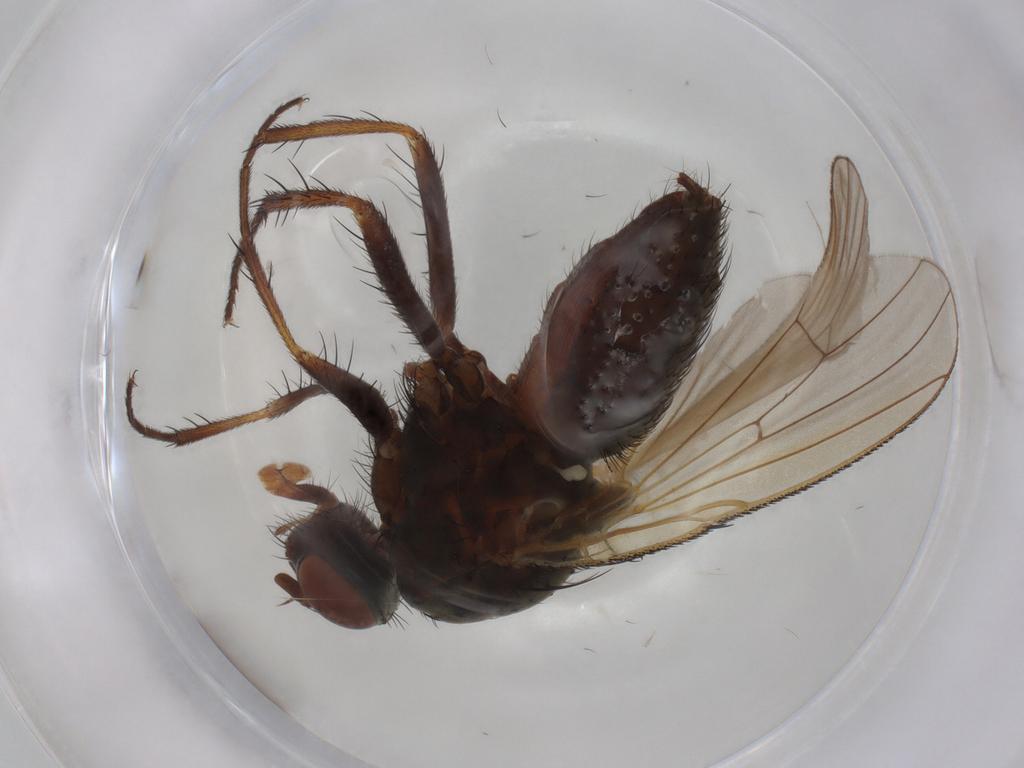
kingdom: Animalia
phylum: Arthropoda
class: Insecta
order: Diptera
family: Anthomyiidae
